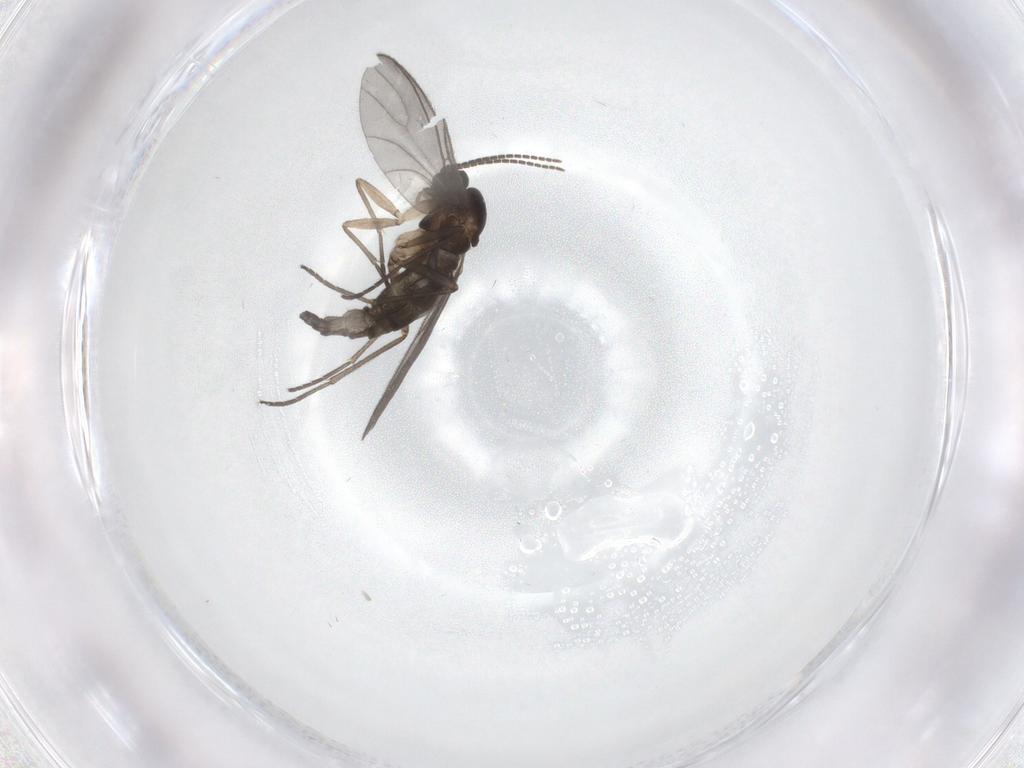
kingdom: Animalia
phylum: Arthropoda
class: Insecta
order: Diptera
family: Sciaridae
